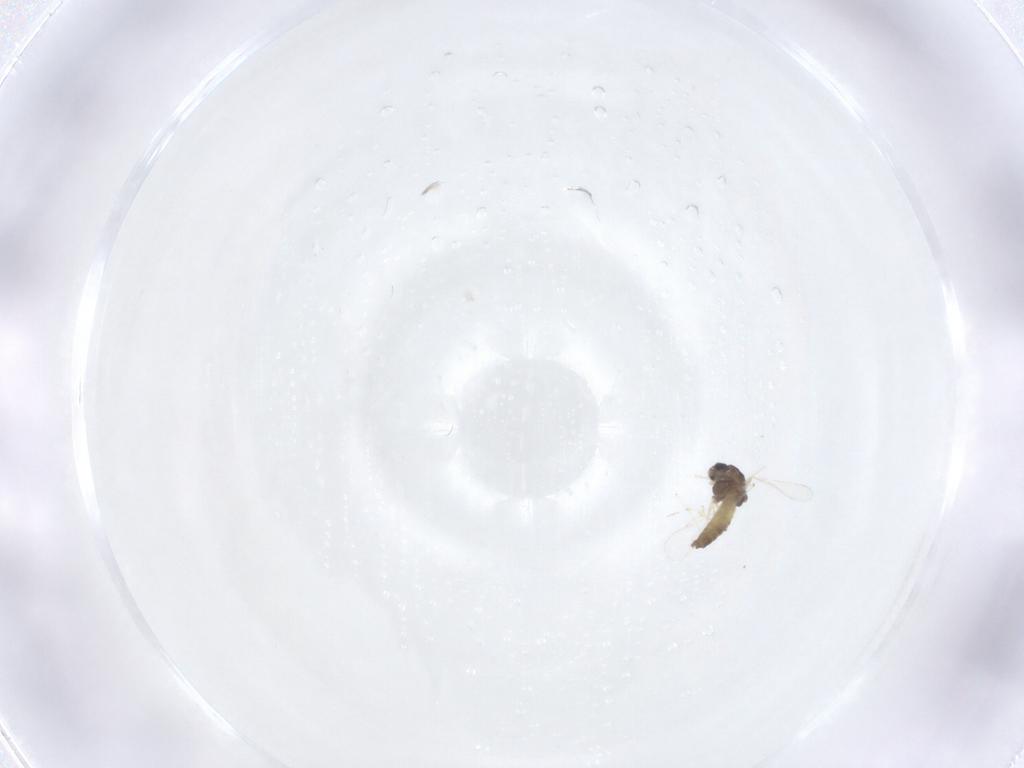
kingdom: Animalia
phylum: Arthropoda
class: Insecta
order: Diptera
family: Chironomidae
